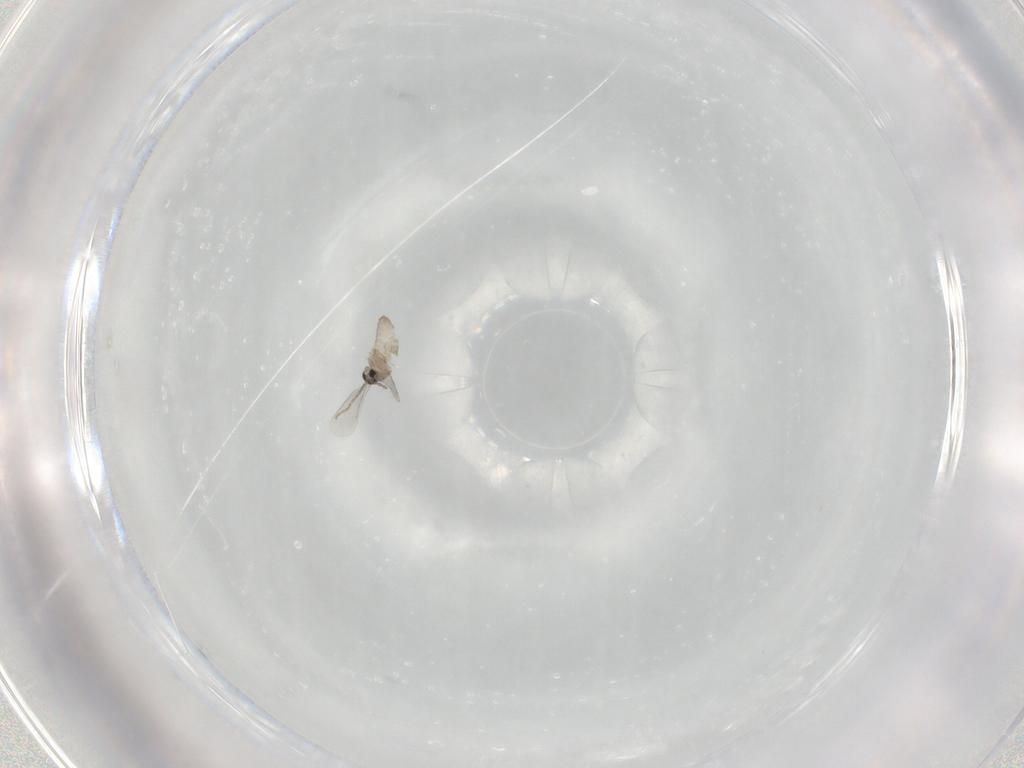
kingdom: Animalia
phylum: Arthropoda
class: Insecta
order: Diptera
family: Cecidomyiidae
